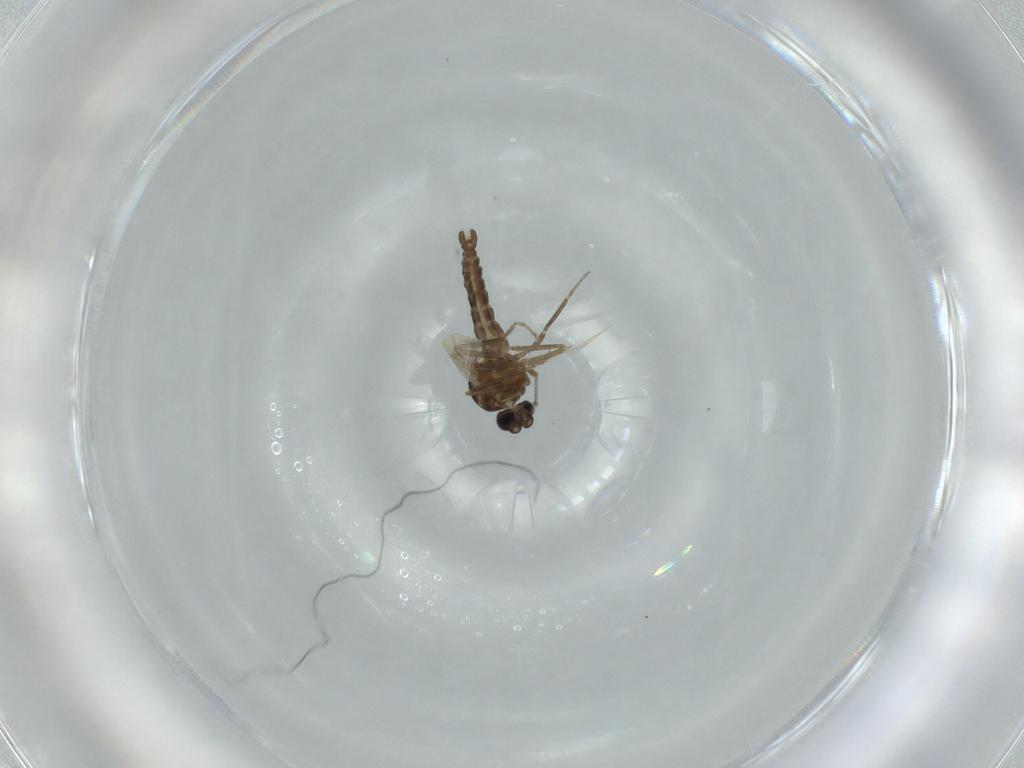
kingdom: Animalia
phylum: Arthropoda
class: Insecta
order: Diptera
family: Ceratopogonidae
